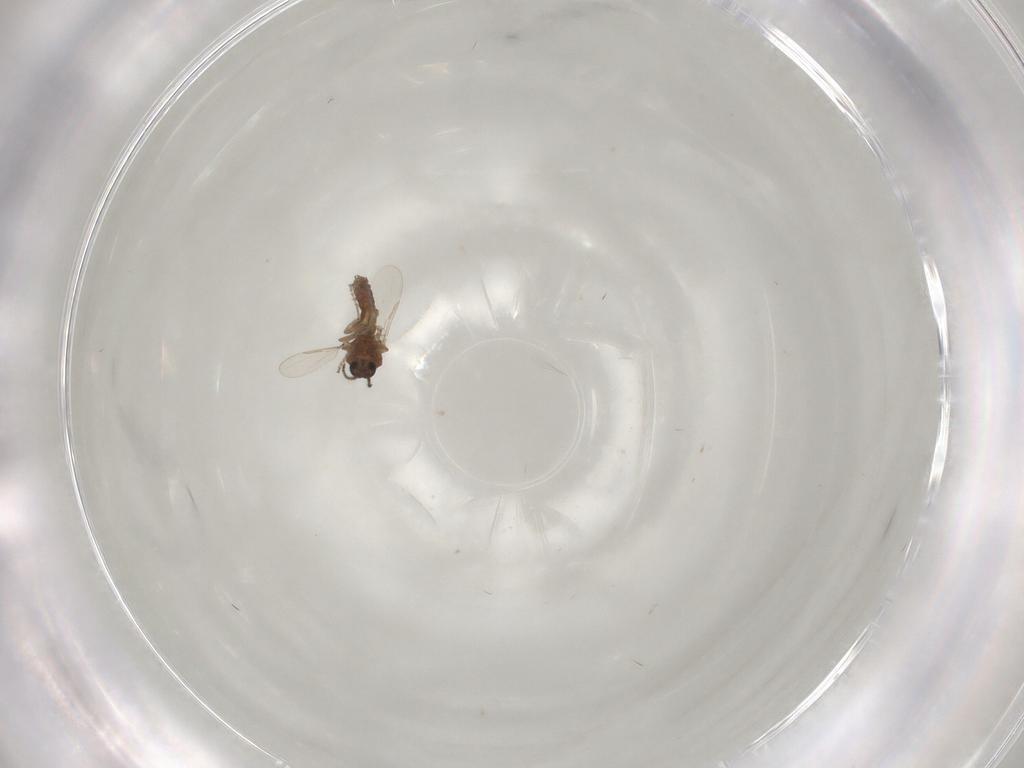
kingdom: Animalia
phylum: Arthropoda
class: Insecta
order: Diptera
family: Ceratopogonidae
